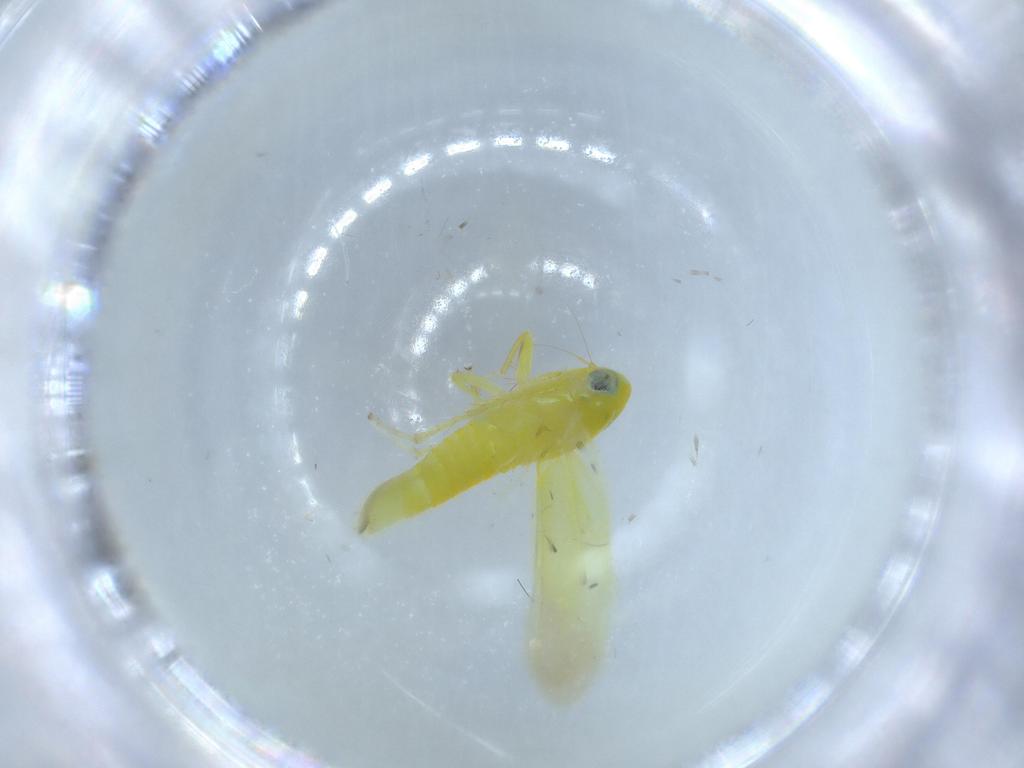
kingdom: Animalia
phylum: Arthropoda
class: Insecta
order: Hemiptera
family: Cicadellidae
